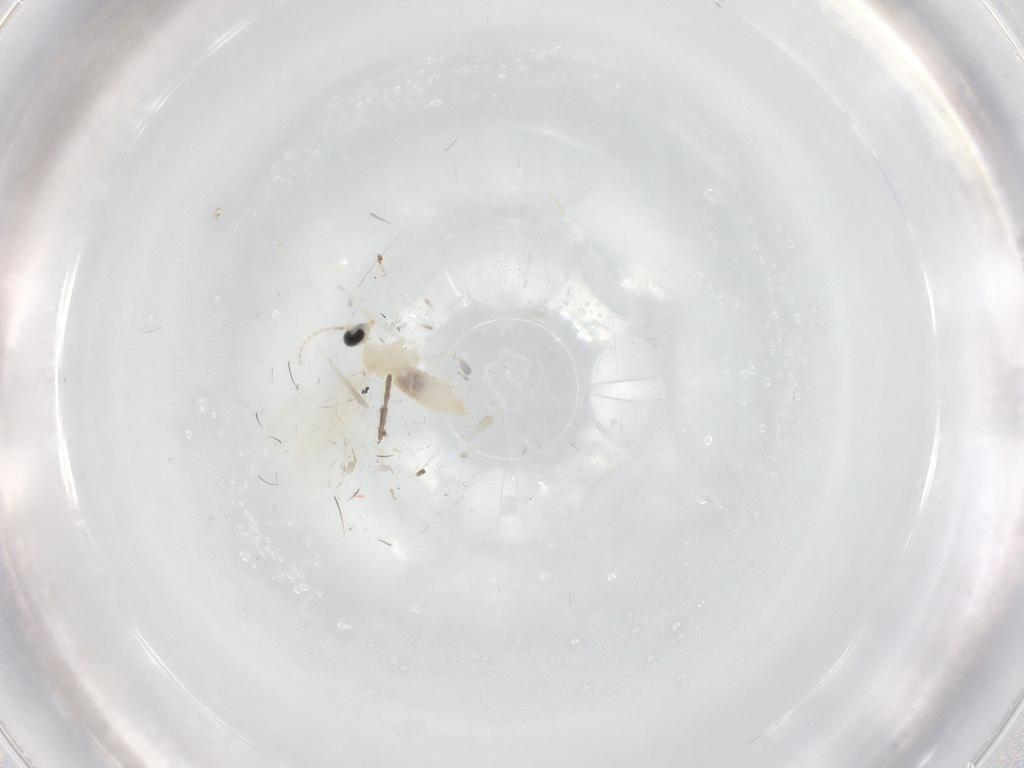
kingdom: Animalia
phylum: Arthropoda
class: Insecta
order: Diptera
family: Cecidomyiidae
